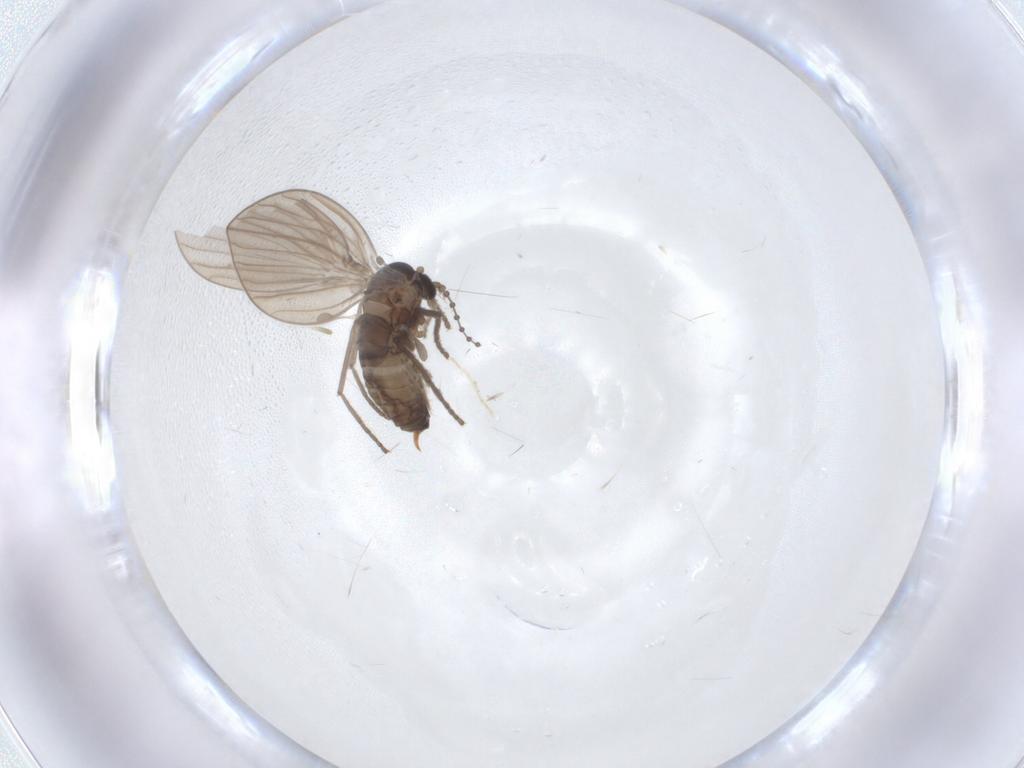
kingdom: Animalia
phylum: Arthropoda
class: Insecta
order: Diptera
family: Psychodidae
